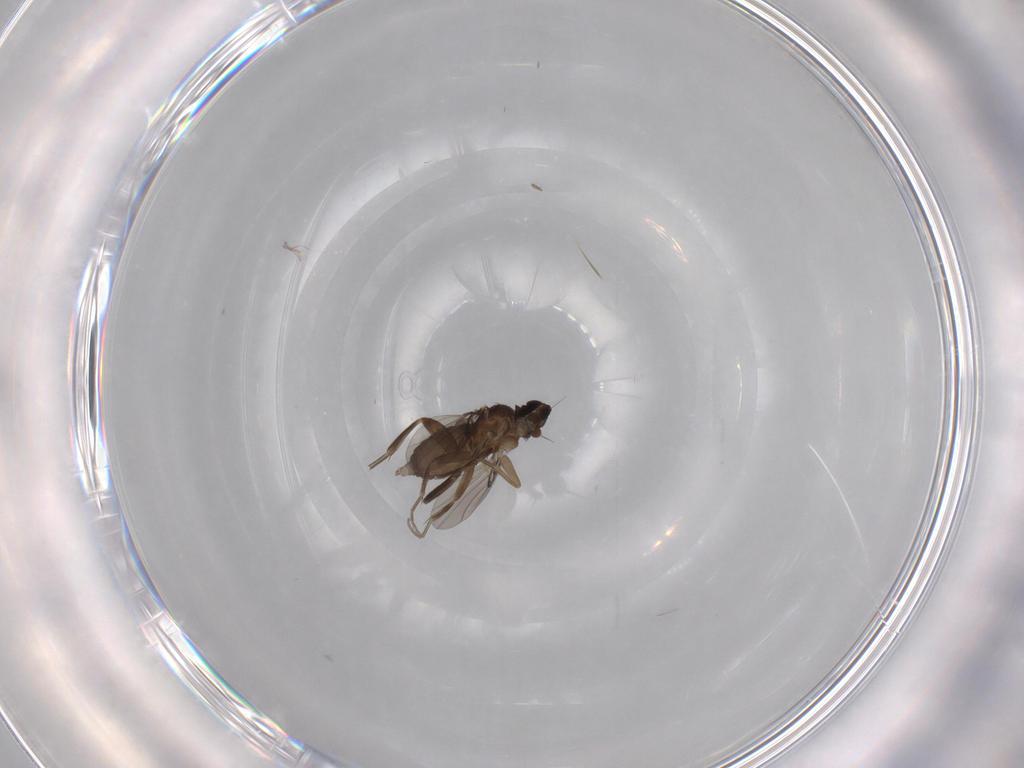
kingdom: Animalia
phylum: Arthropoda
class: Insecta
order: Diptera
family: Phoridae
